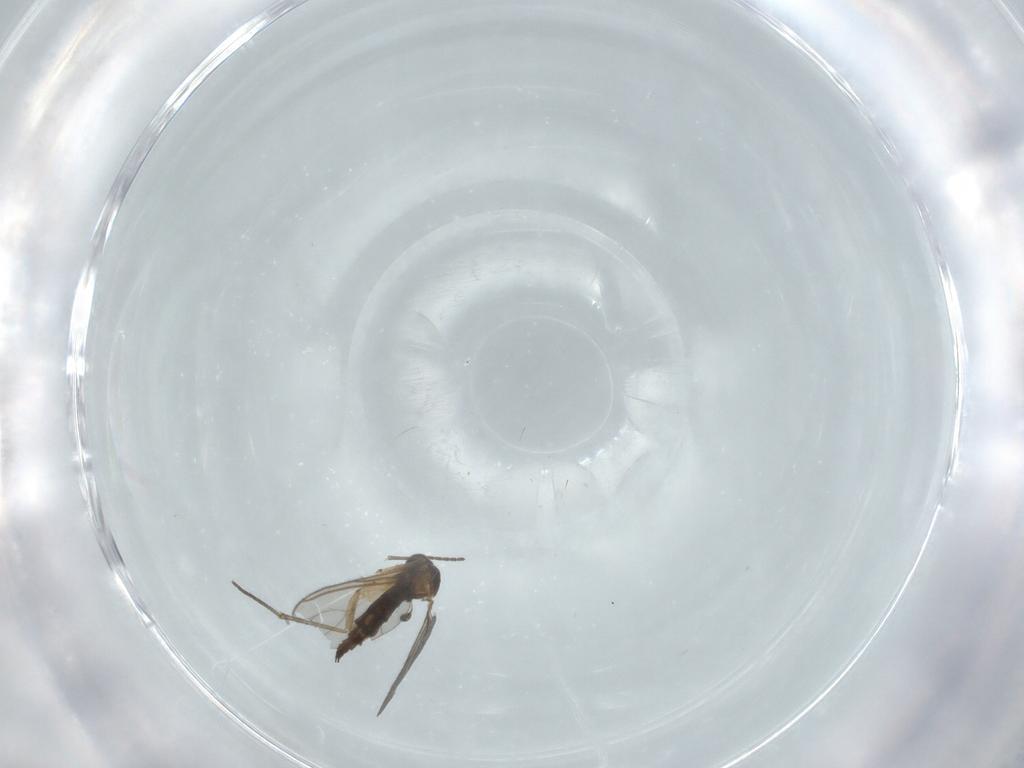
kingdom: Animalia
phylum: Arthropoda
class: Insecta
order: Diptera
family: Sciaridae
